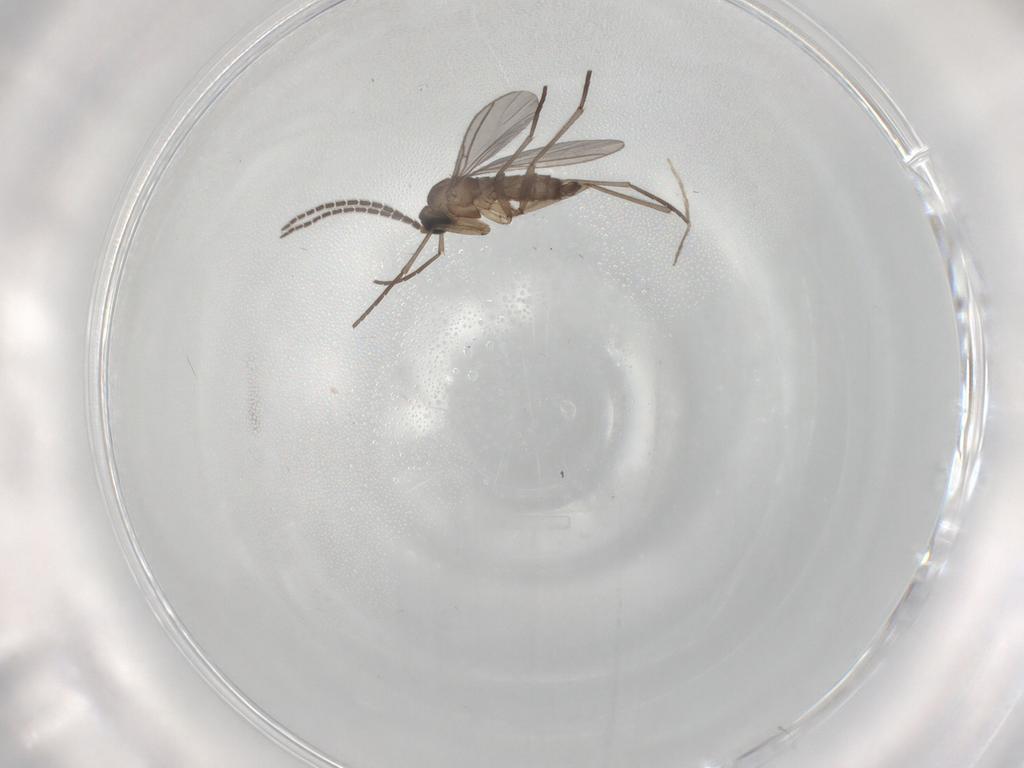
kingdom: Animalia
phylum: Arthropoda
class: Insecta
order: Diptera
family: Sciaridae
